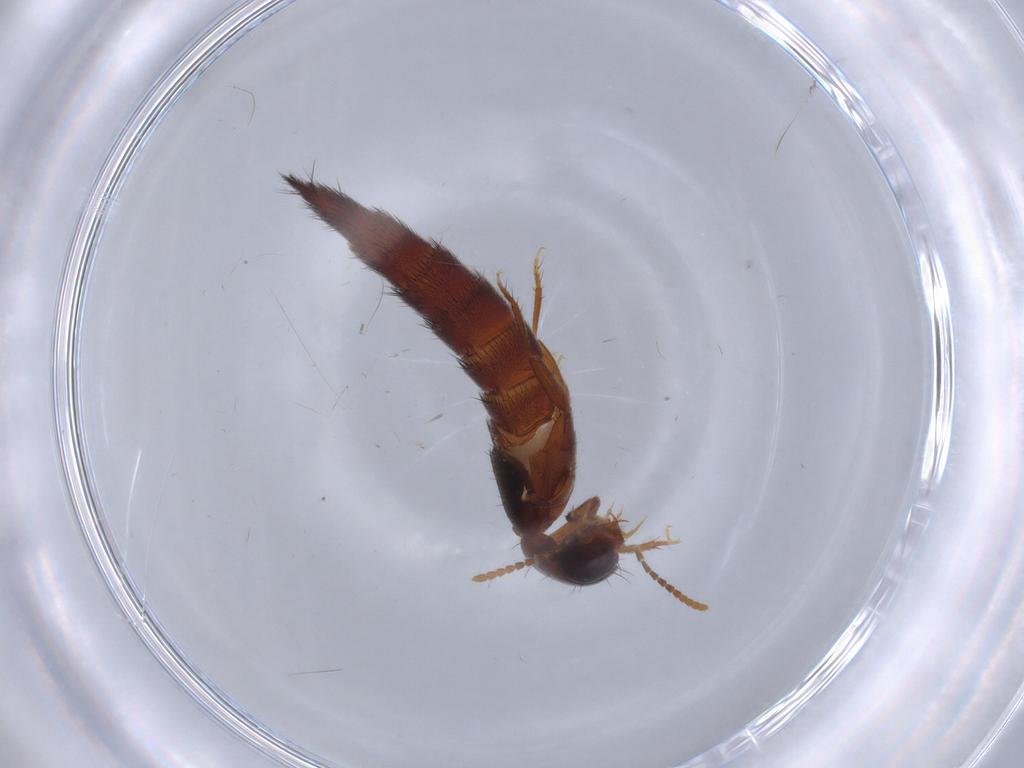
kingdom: Animalia
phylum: Arthropoda
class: Insecta
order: Coleoptera
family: Staphylinidae
